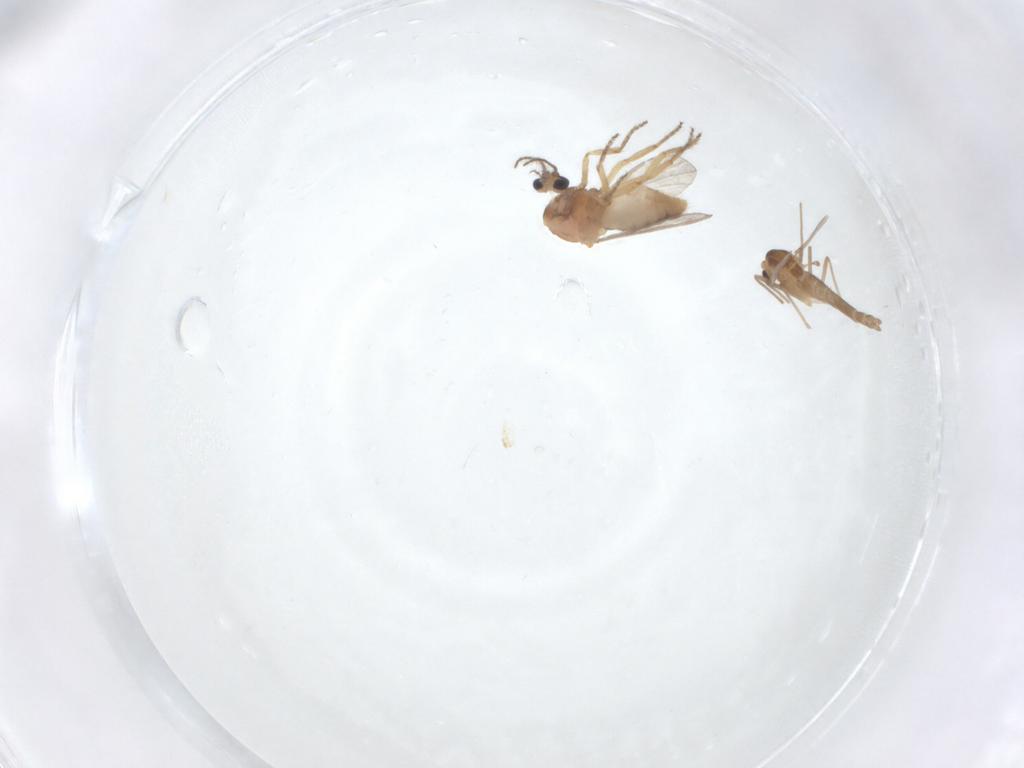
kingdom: Animalia
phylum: Arthropoda
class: Insecta
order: Diptera
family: Ceratopogonidae
